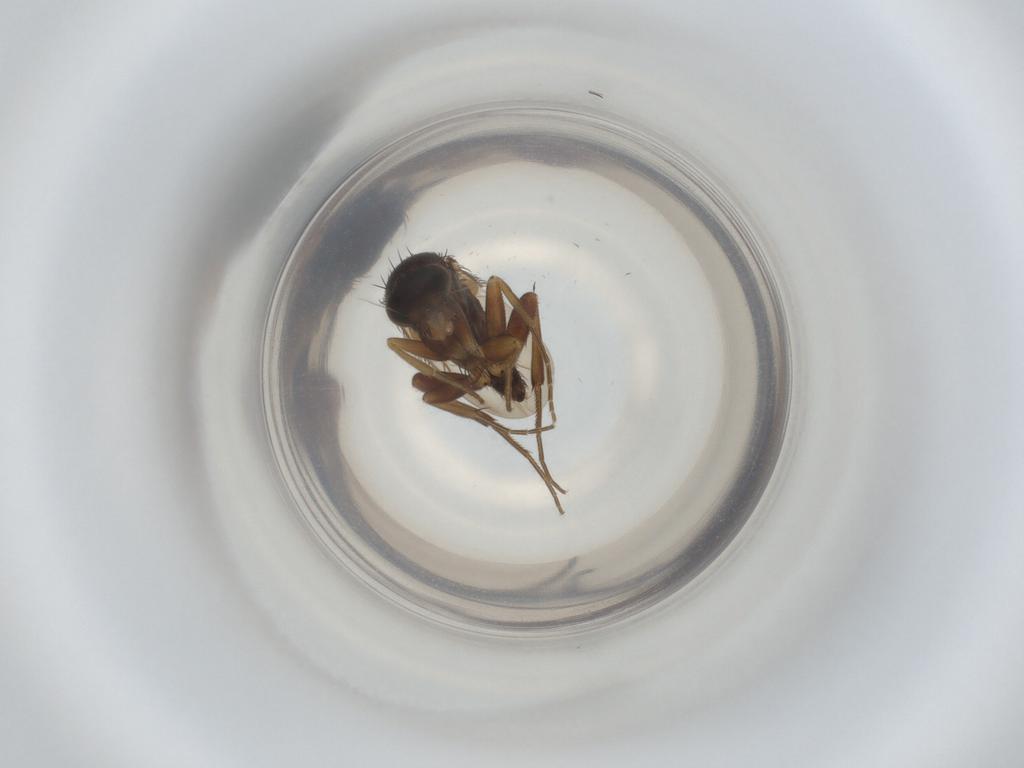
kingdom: Animalia
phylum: Arthropoda
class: Insecta
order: Diptera
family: Phoridae
